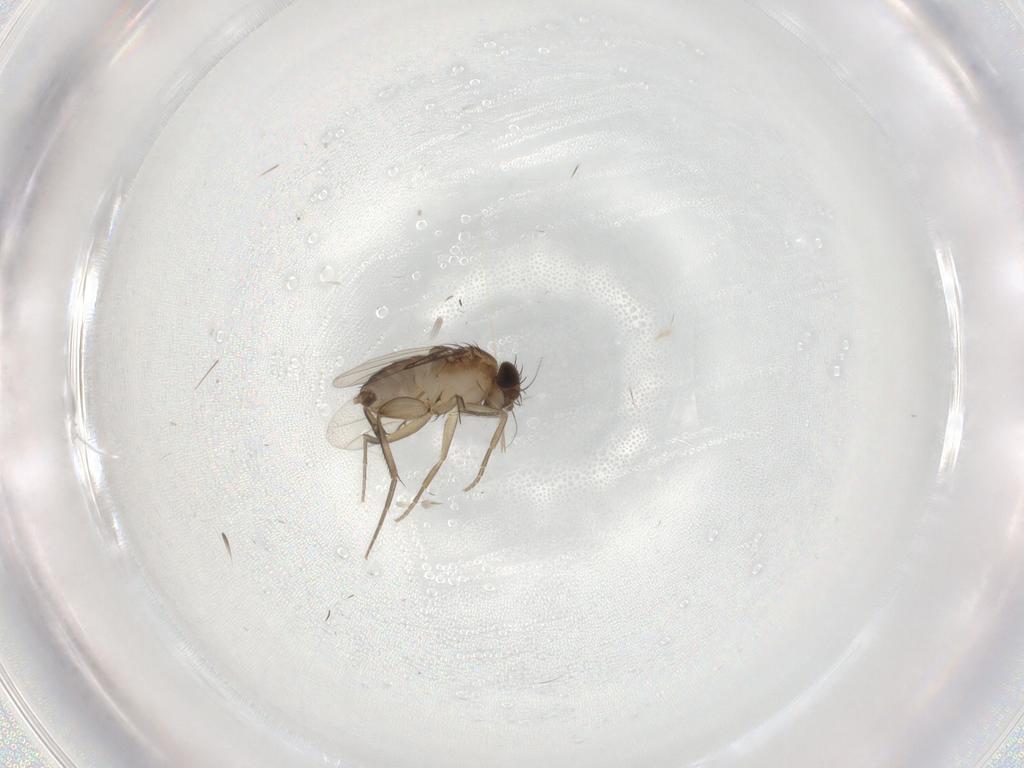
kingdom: Animalia
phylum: Arthropoda
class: Insecta
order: Diptera
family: Phoridae
